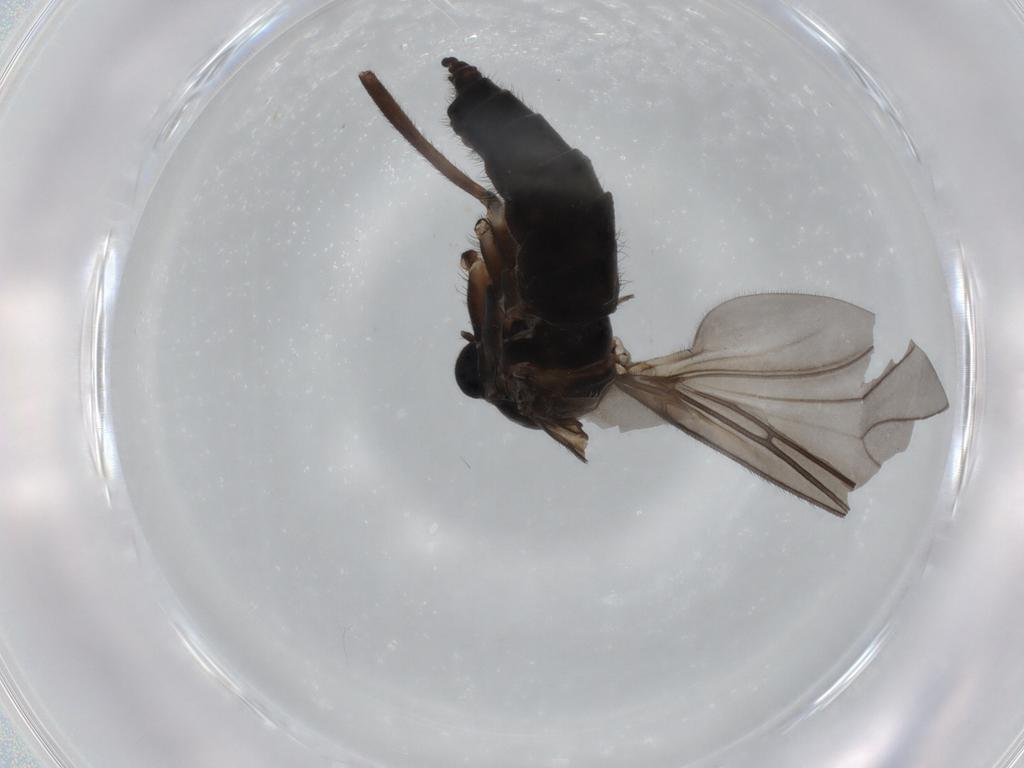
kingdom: Animalia
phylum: Arthropoda
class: Insecta
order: Diptera
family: Sciaridae
